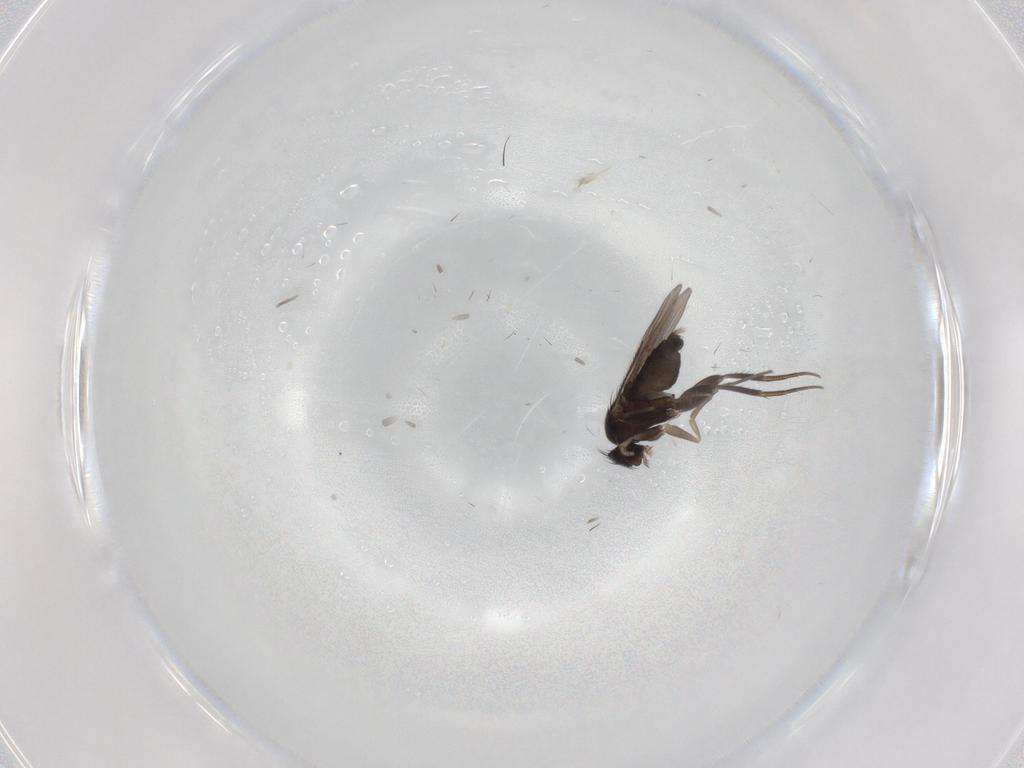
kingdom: Animalia
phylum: Arthropoda
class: Insecta
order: Diptera
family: Phoridae
